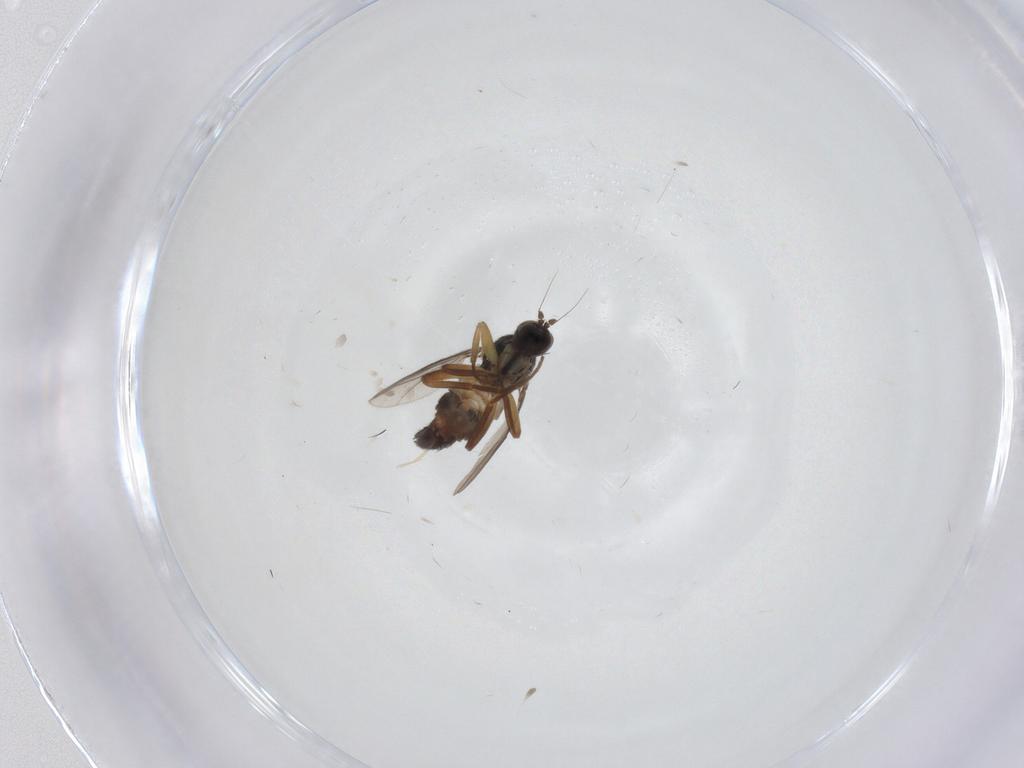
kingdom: Animalia
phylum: Arthropoda
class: Insecta
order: Diptera
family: Hybotidae
